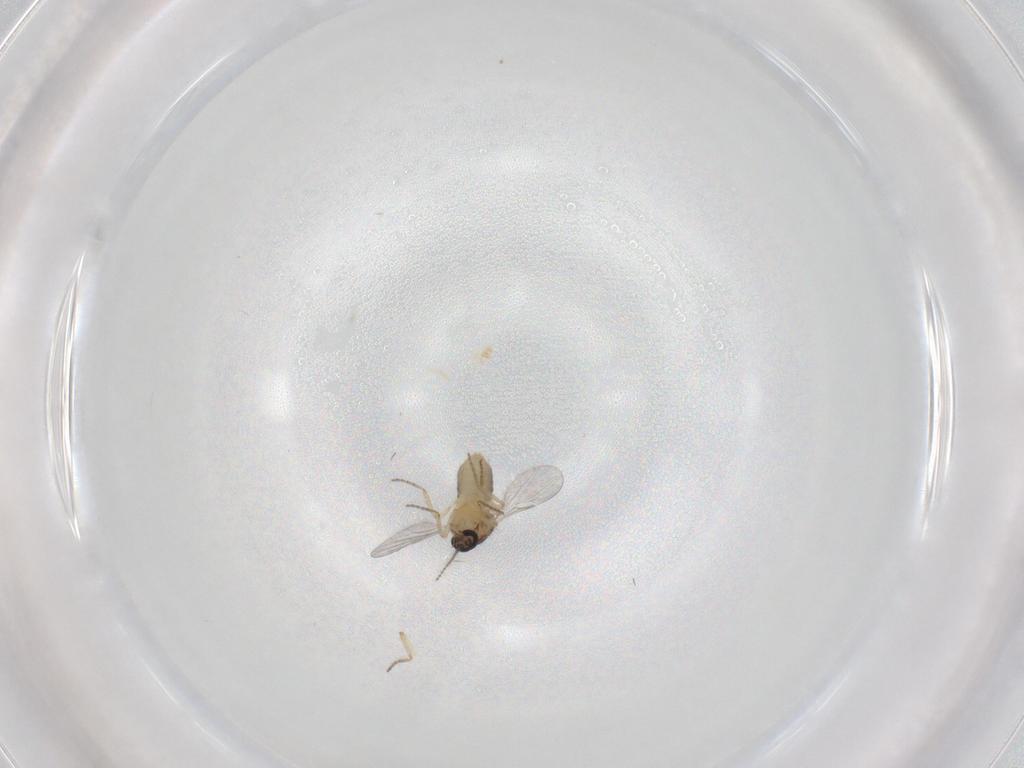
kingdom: Animalia
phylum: Arthropoda
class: Insecta
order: Diptera
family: Ceratopogonidae
